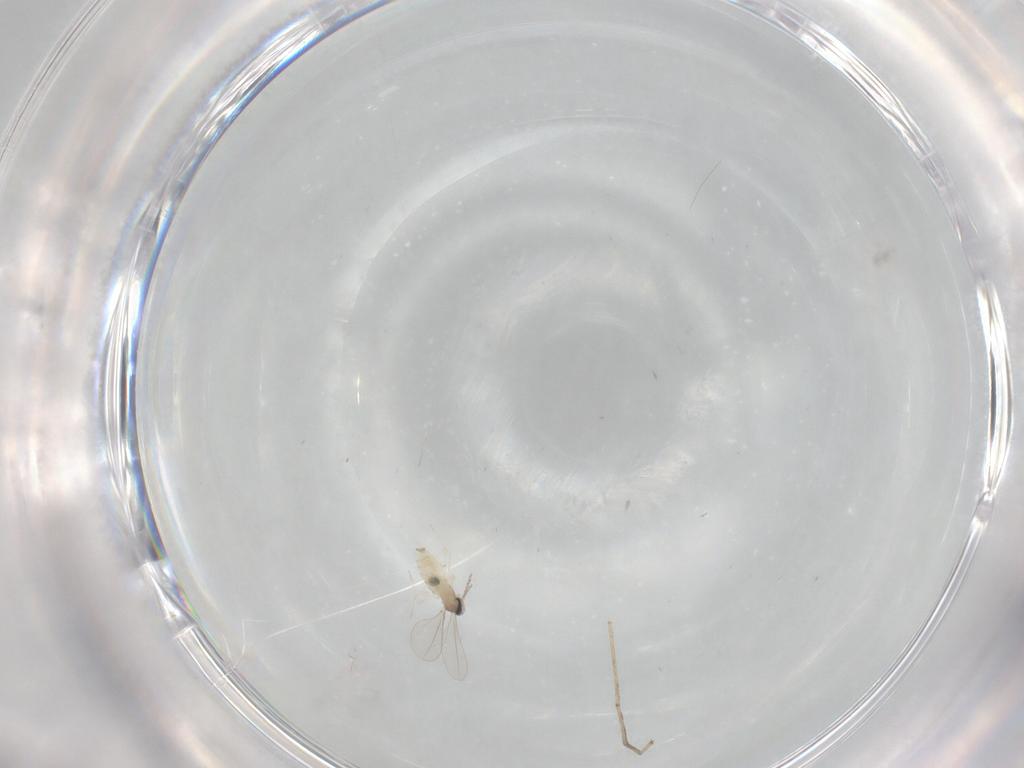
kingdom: Animalia
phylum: Arthropoda
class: Insecta
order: Diptera
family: Cecidomyiidae
